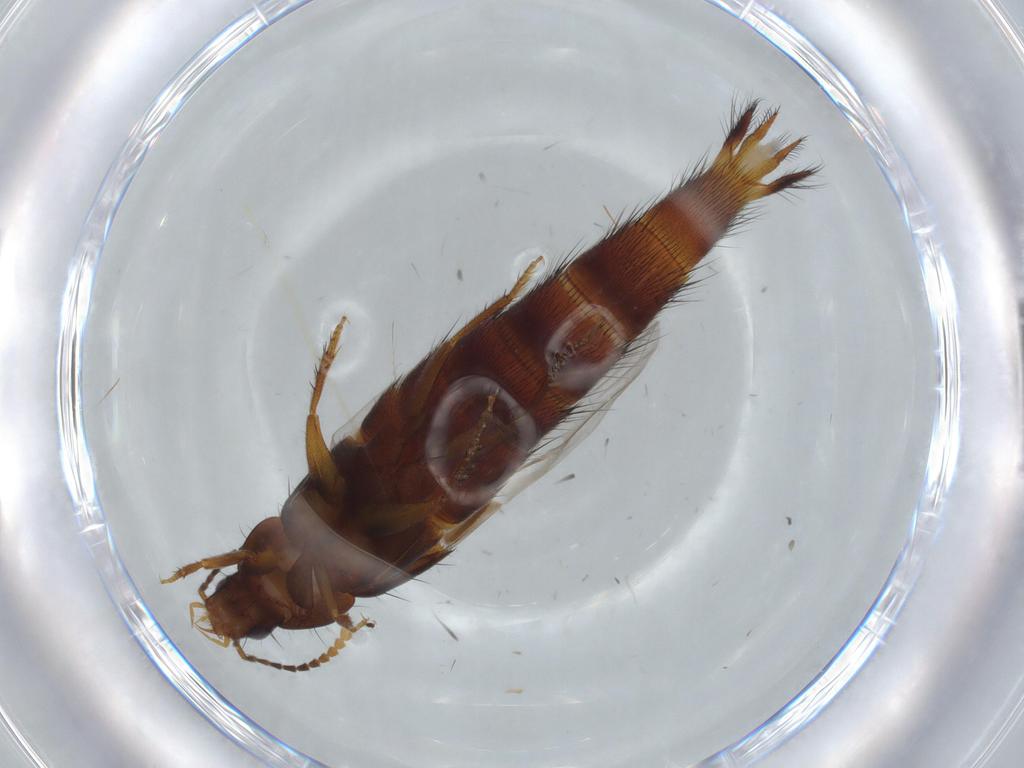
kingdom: Animalia
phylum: Arthropoda
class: Insecta
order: Coleoptera
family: Staphylinidae
